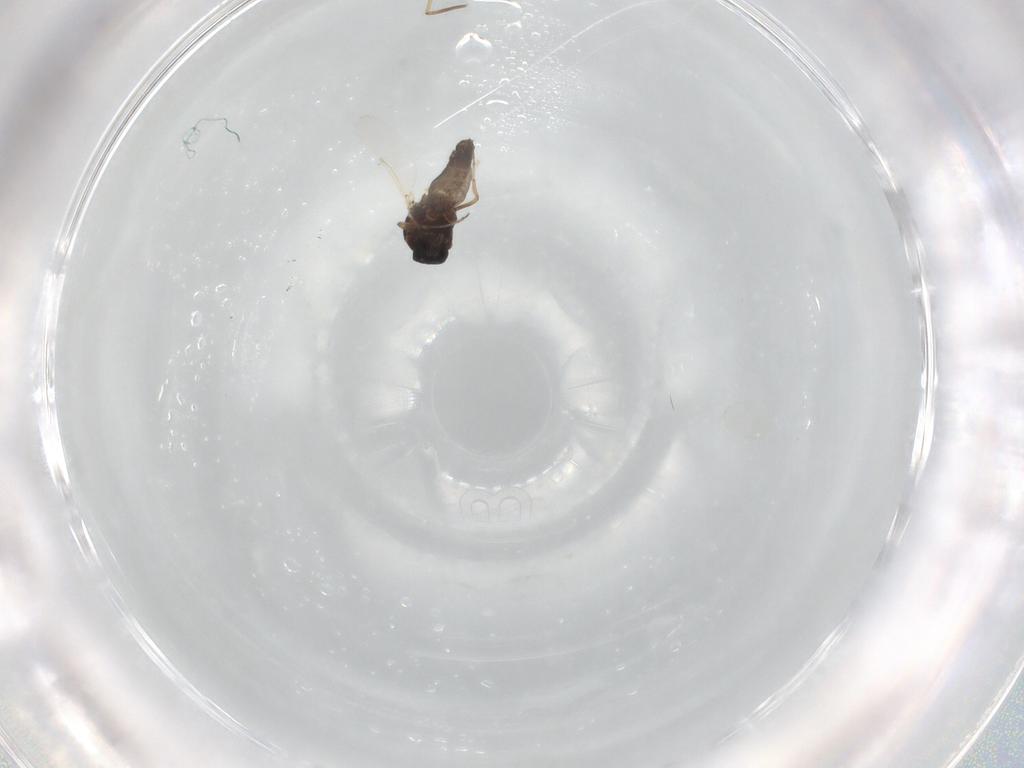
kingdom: Animalia
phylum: Arthropoda
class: Insecta
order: Diptera
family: Ceratopogonidae
